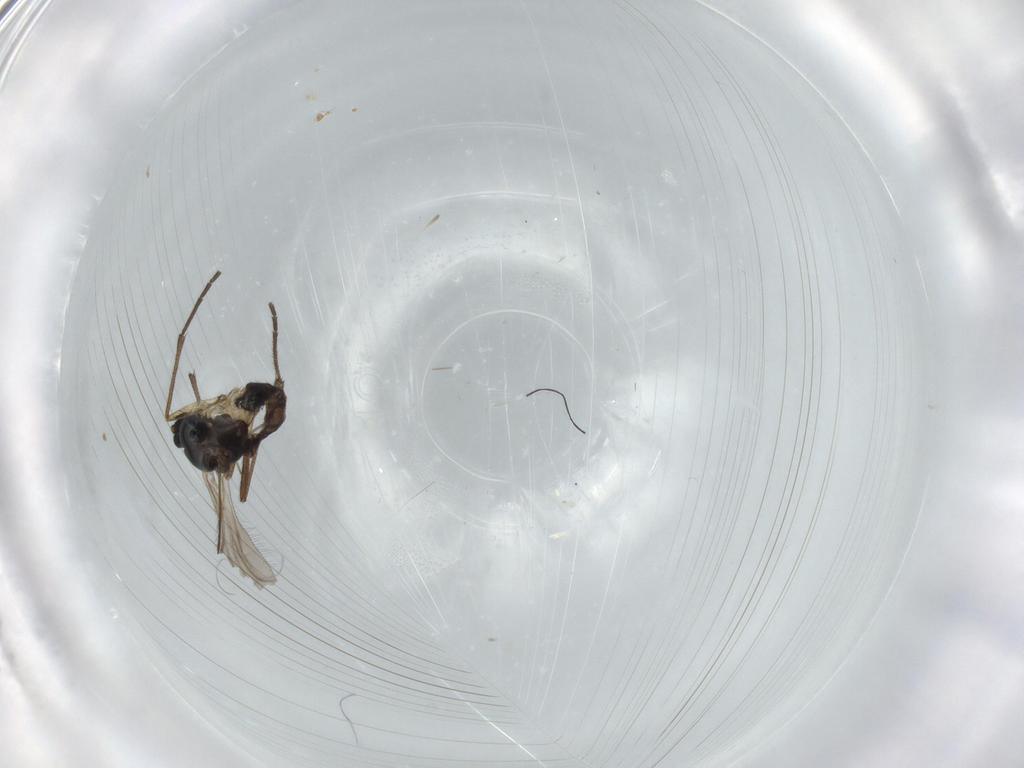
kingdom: Animalia
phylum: Arthropoda
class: Insecta
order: Diptera
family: Sciaridae
